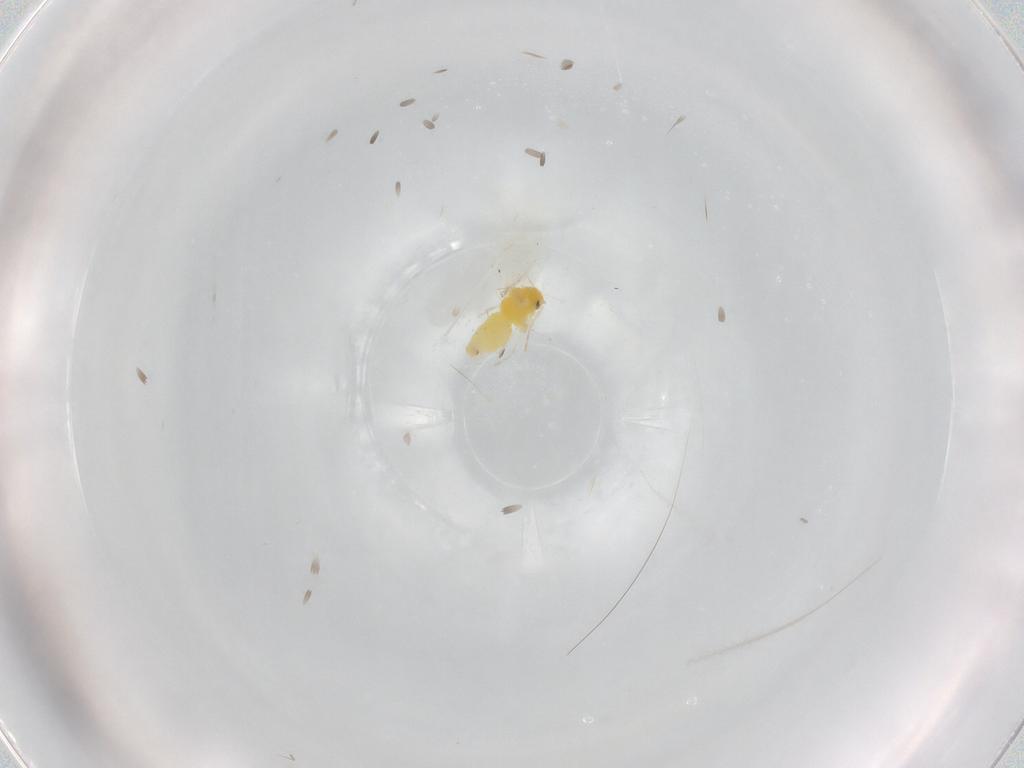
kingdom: Animalia
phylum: Arthropoda
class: Insecta
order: Hemiptera
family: Aleyrodidae
